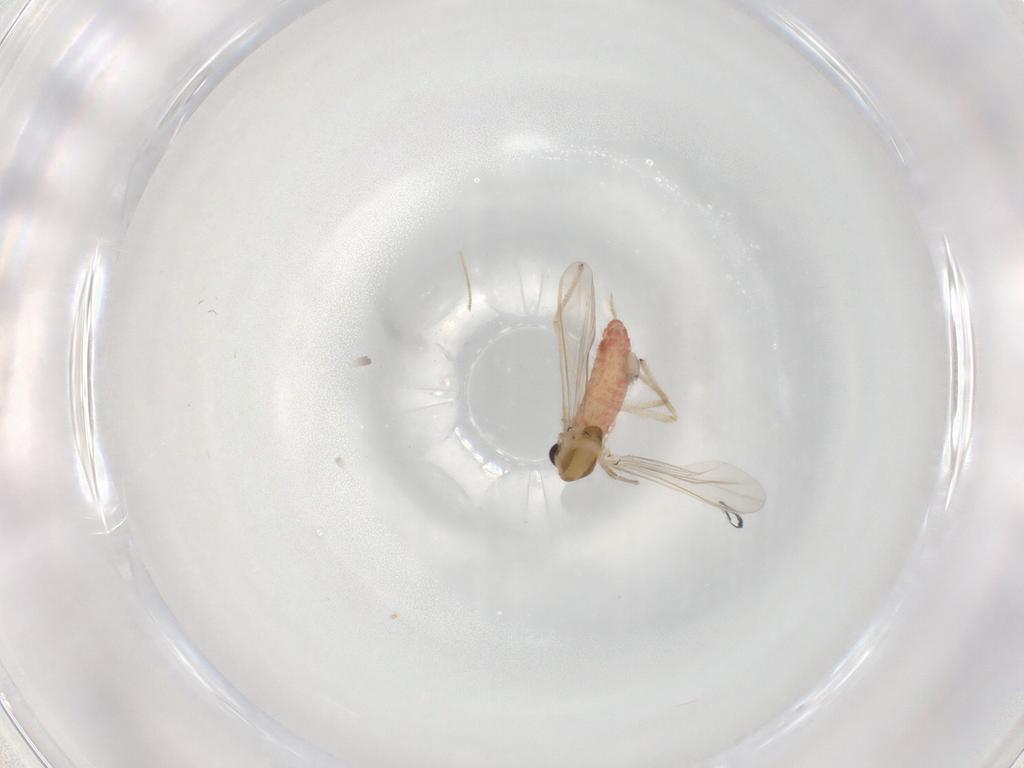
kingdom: Animalia
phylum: Arthropoda
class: Insecta
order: Diptera
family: Chironomidae
